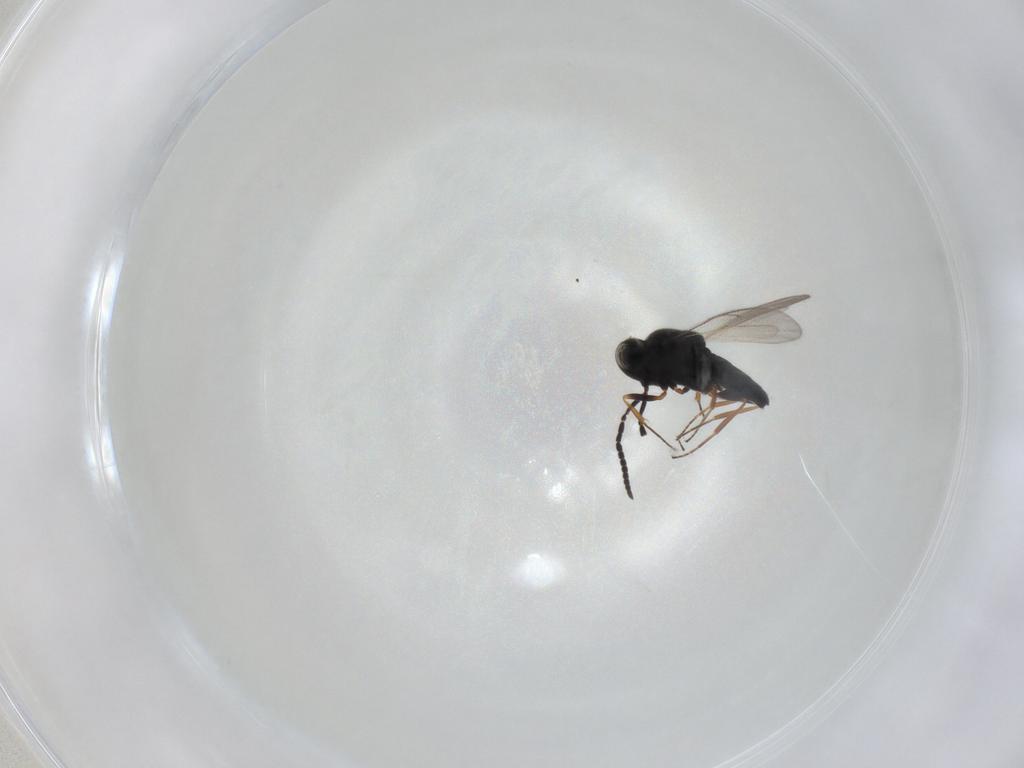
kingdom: Animalia
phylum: Arthropoda
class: Insecta
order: Hymenoptera
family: Scelionidae
